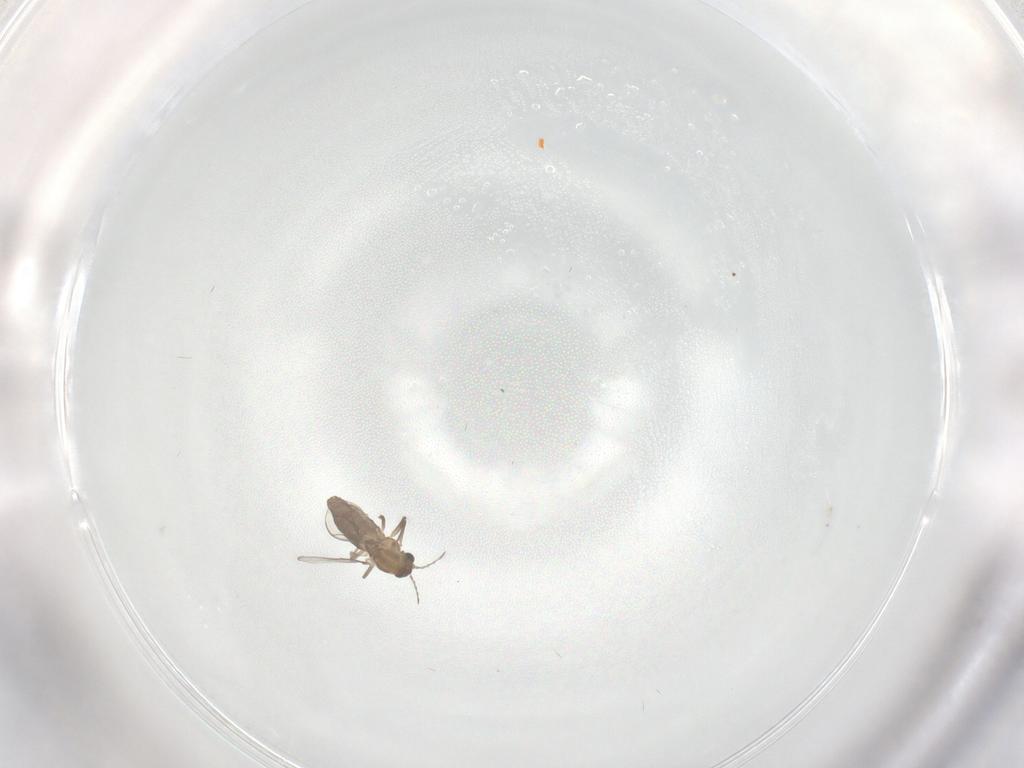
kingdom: Animalia
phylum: Arthropoda
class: Insecta
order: Diptera
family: Chironomidae
